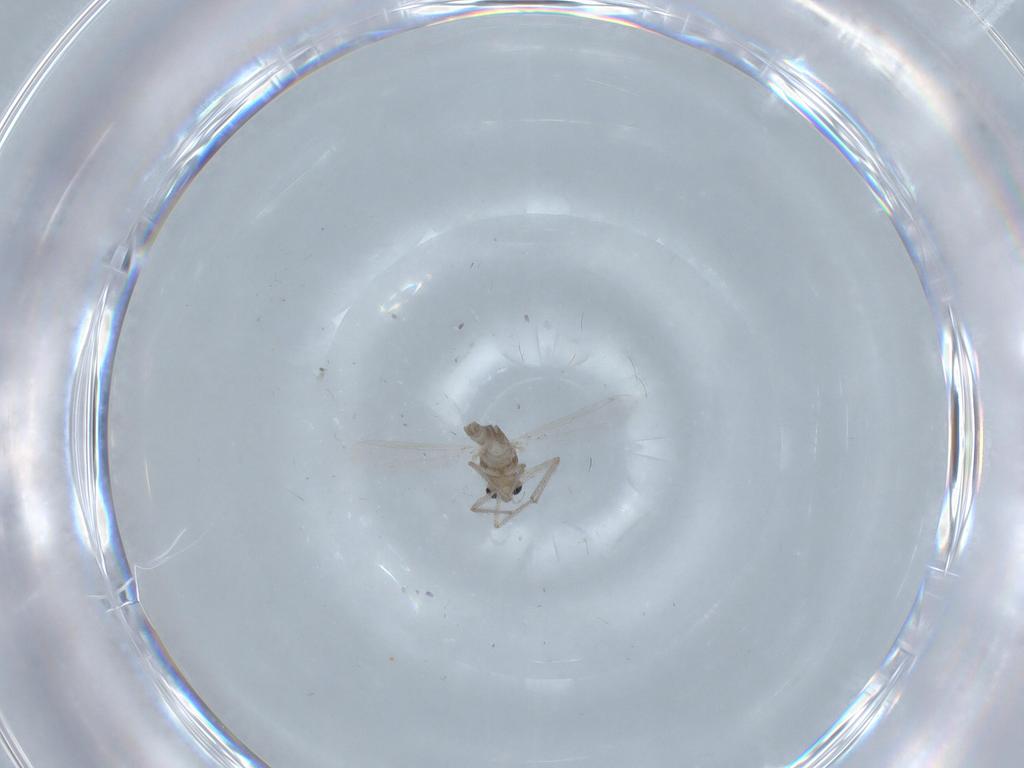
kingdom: Animalia
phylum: Arthropoda
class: Insecta
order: Diptera
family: Chironomidae
